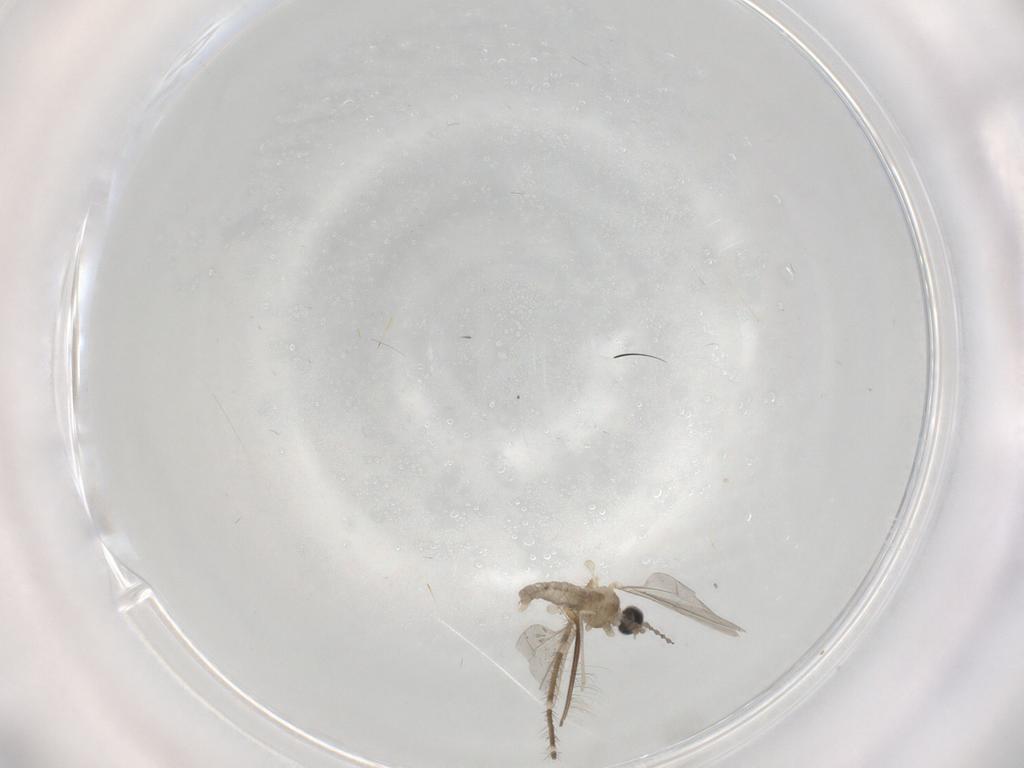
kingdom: Animalia
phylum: Arthropoda
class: Insecta
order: Diptera
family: Cecidomyiidae
